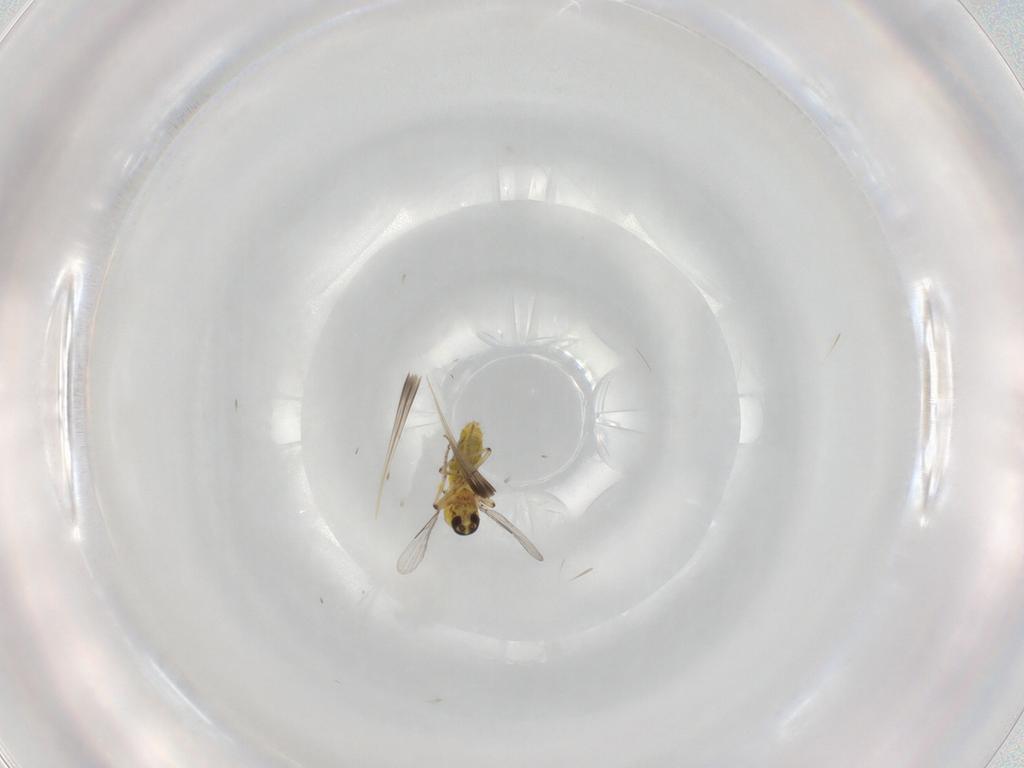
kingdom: Animalia
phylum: Arthropoda
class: Insecta
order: Diptera
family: Ceratopogonidae
